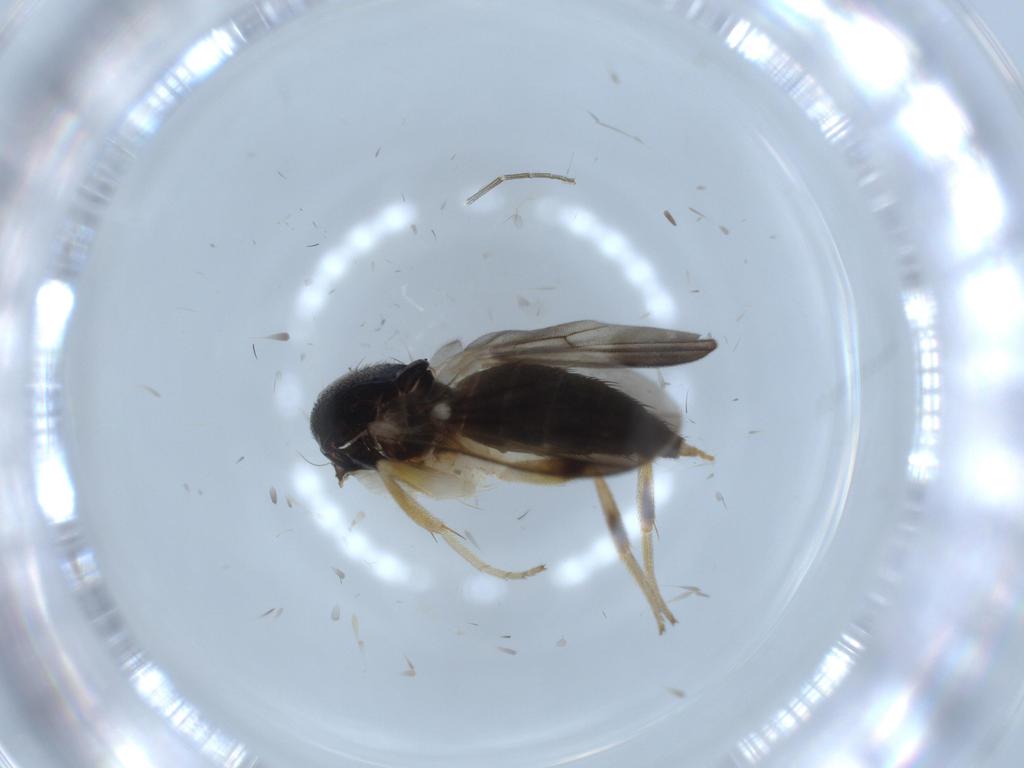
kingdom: Animalia
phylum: Arthropoda
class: Insecta
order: Diptera
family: Clusiidae
